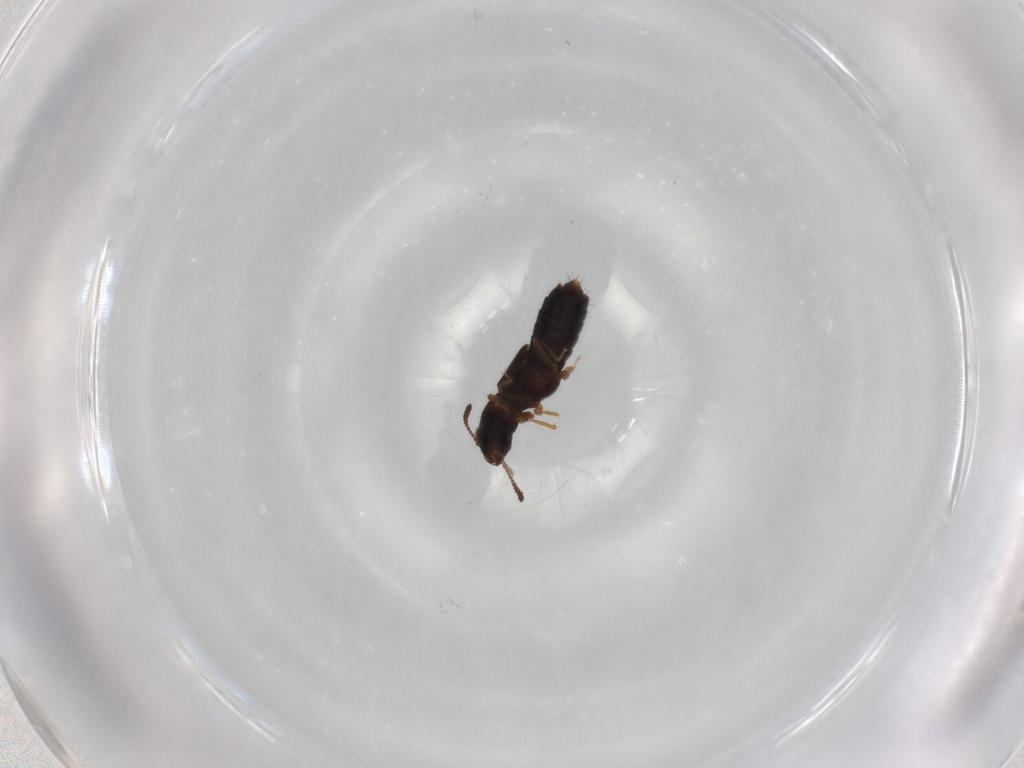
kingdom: Animalia
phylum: Arthropoda
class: Insecta
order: Coleoptera
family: Staphylinidae
